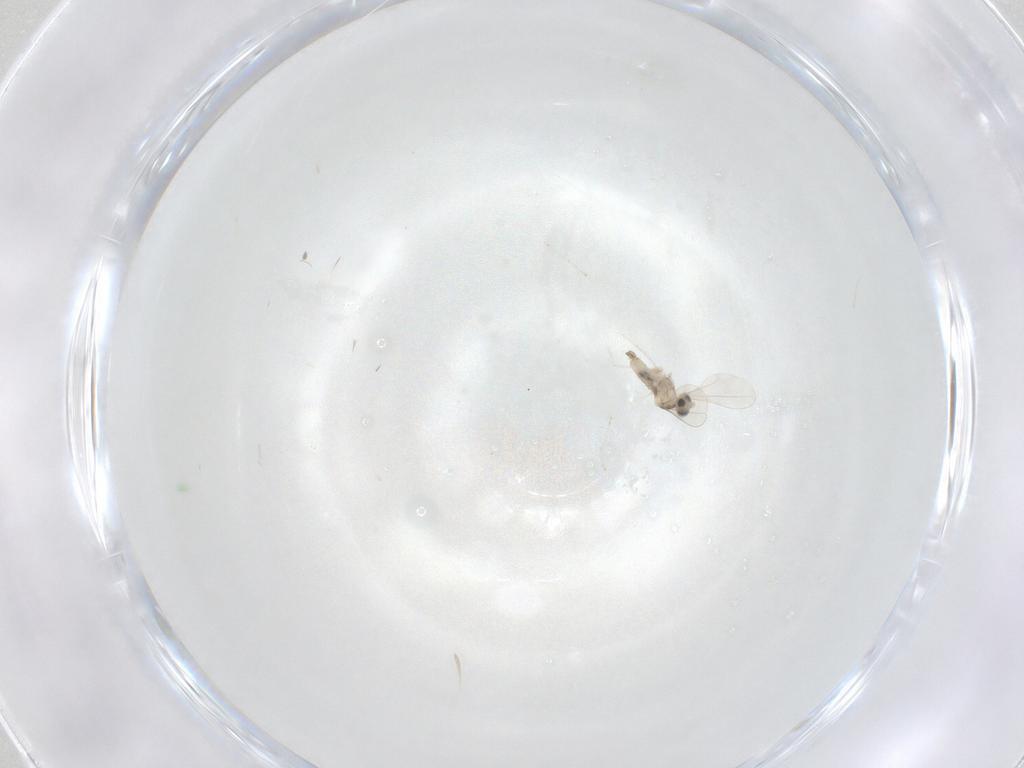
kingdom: Animalia
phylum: Arthropoda
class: Insecta
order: Diptera
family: Cecidomyiidae
